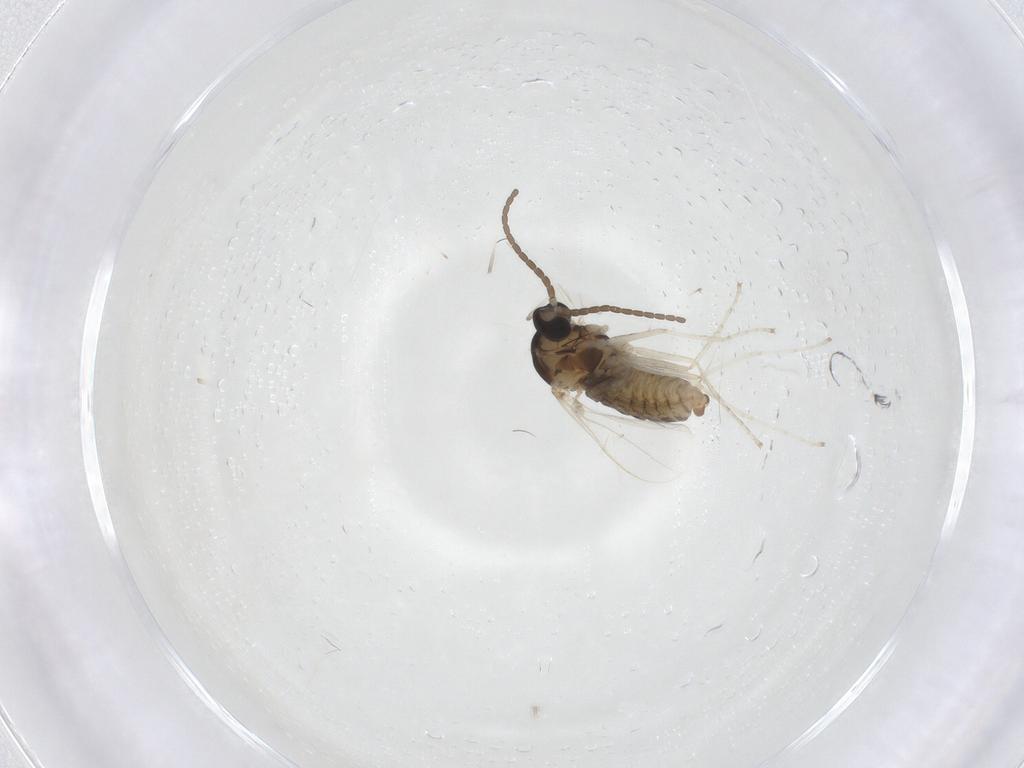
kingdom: Animalia
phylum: Arthropoda
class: Insecta
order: Diptera
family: Cecidomyiidae
